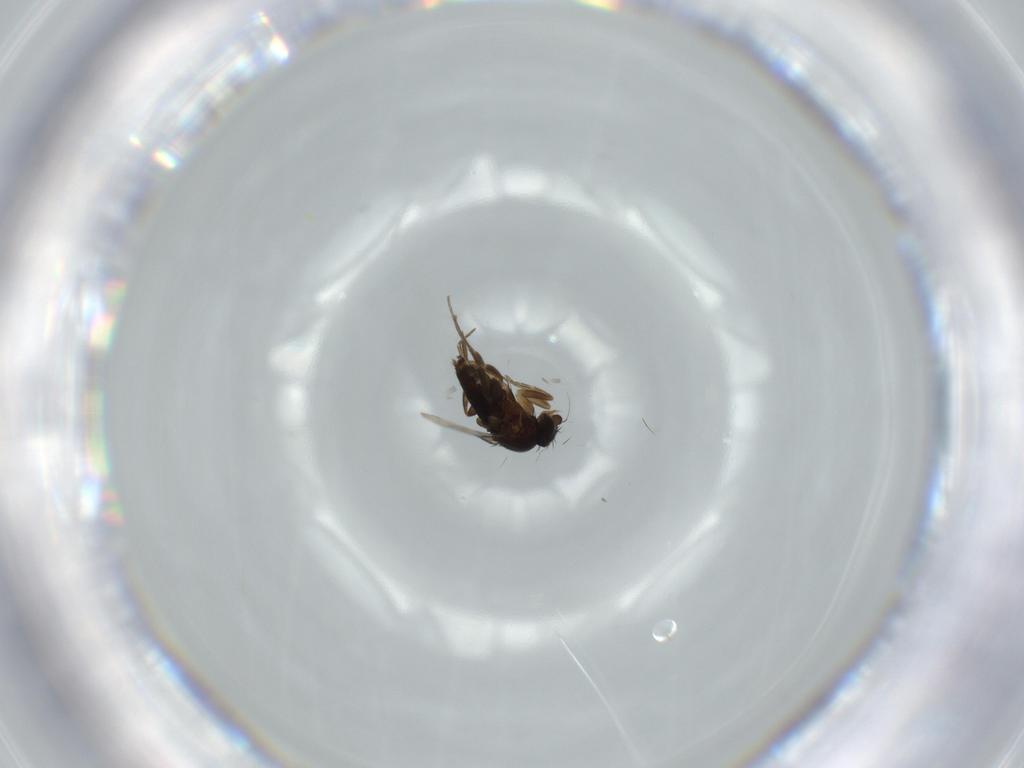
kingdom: Animalia
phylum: Arthropoda
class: Insecta
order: Diptera
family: Phoridae
